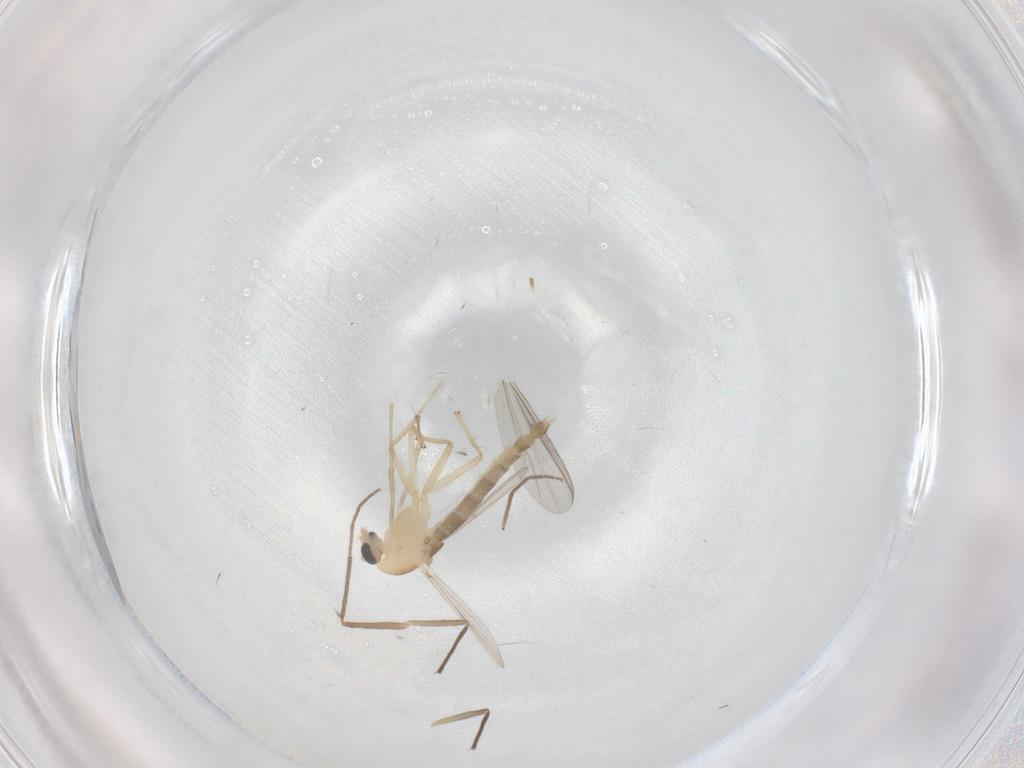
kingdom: Animalia
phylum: Arthropoda
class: Insecta
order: Diptera
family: Chironomidae
